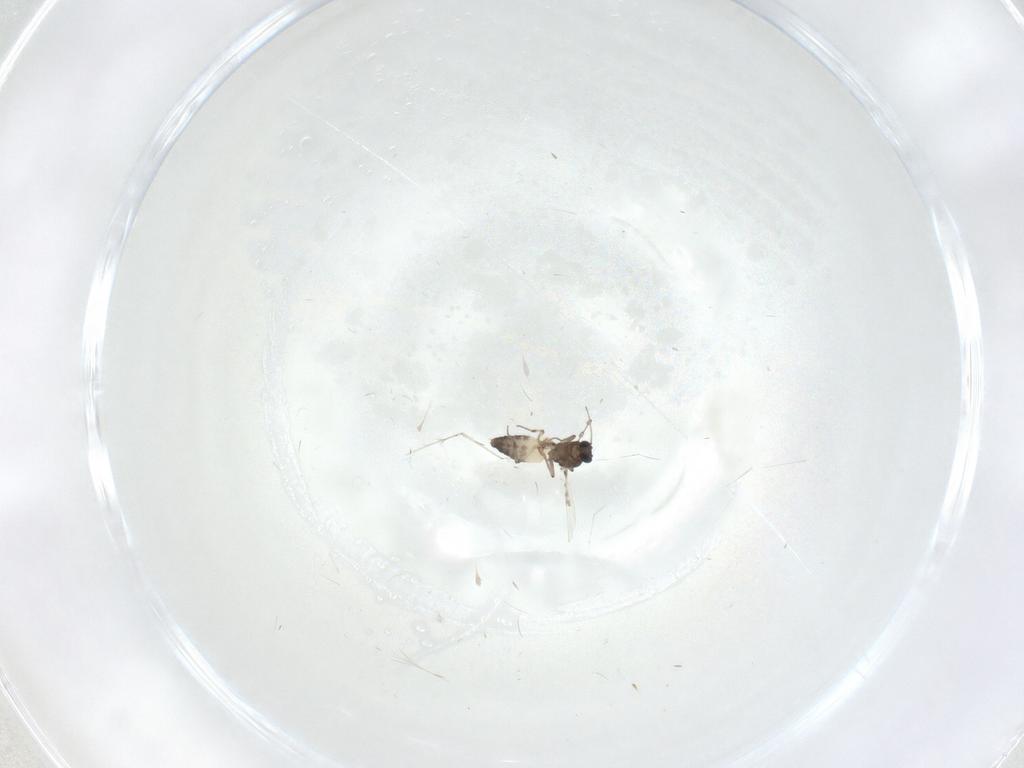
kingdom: Animalia
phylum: Arthropoda
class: Insecta
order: Diptera
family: Ceratopogonidae
